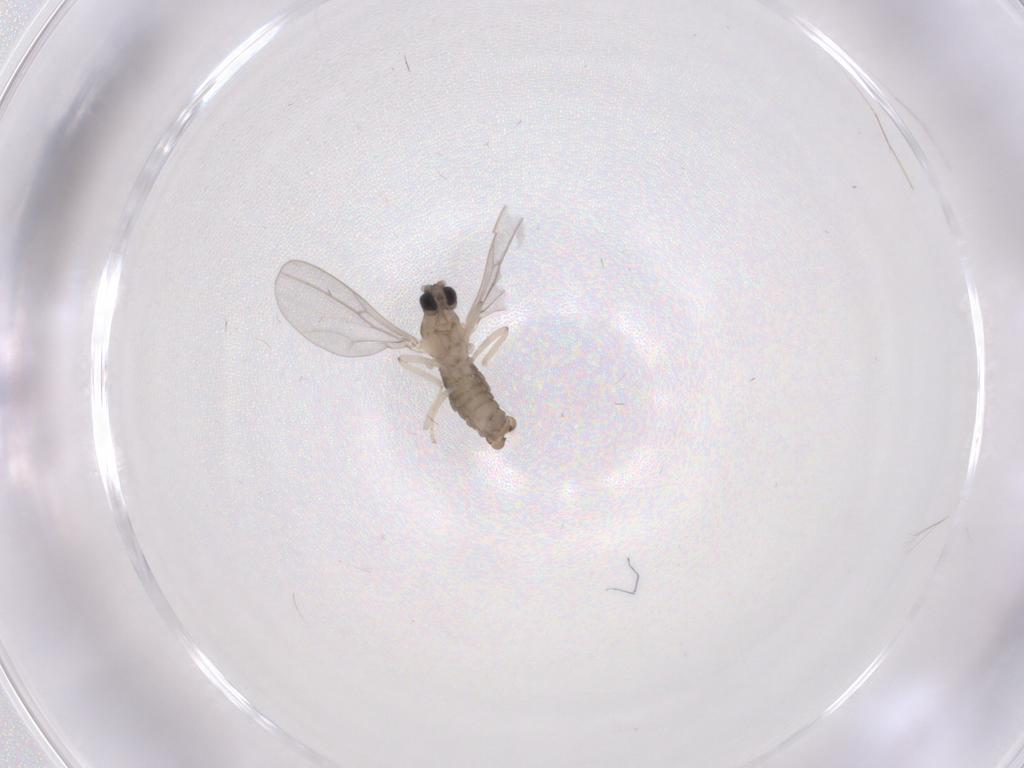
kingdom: Animalia
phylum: Arthropoda
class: Insecta
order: Diptera
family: Cecidomyiidae
